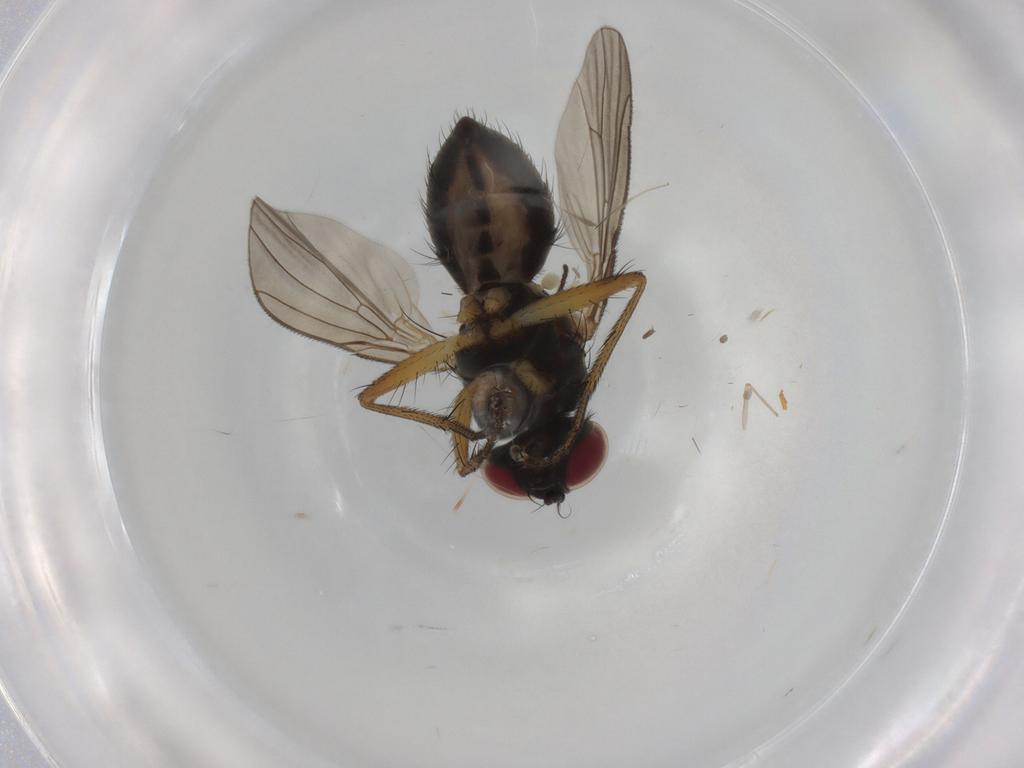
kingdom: Animalia
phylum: Arthropoda
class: Insecta
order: Diptera
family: Muscidae
